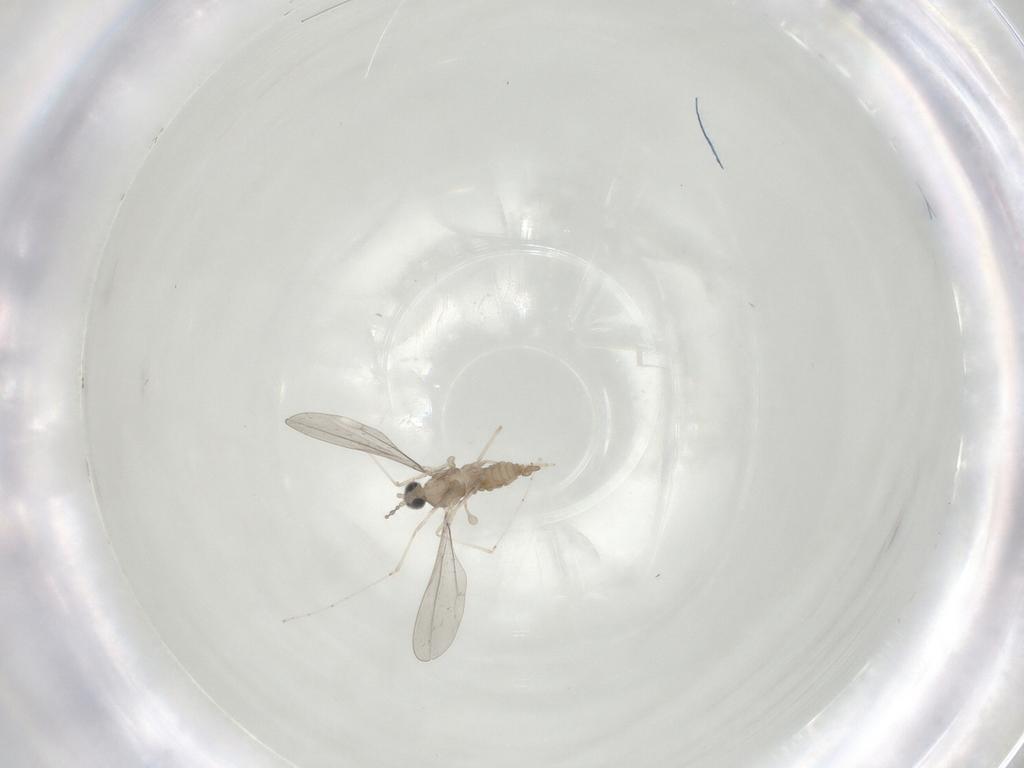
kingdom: Animalia
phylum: Arthropoda
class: Insecta
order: Diptera
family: Cecidomyiidae
